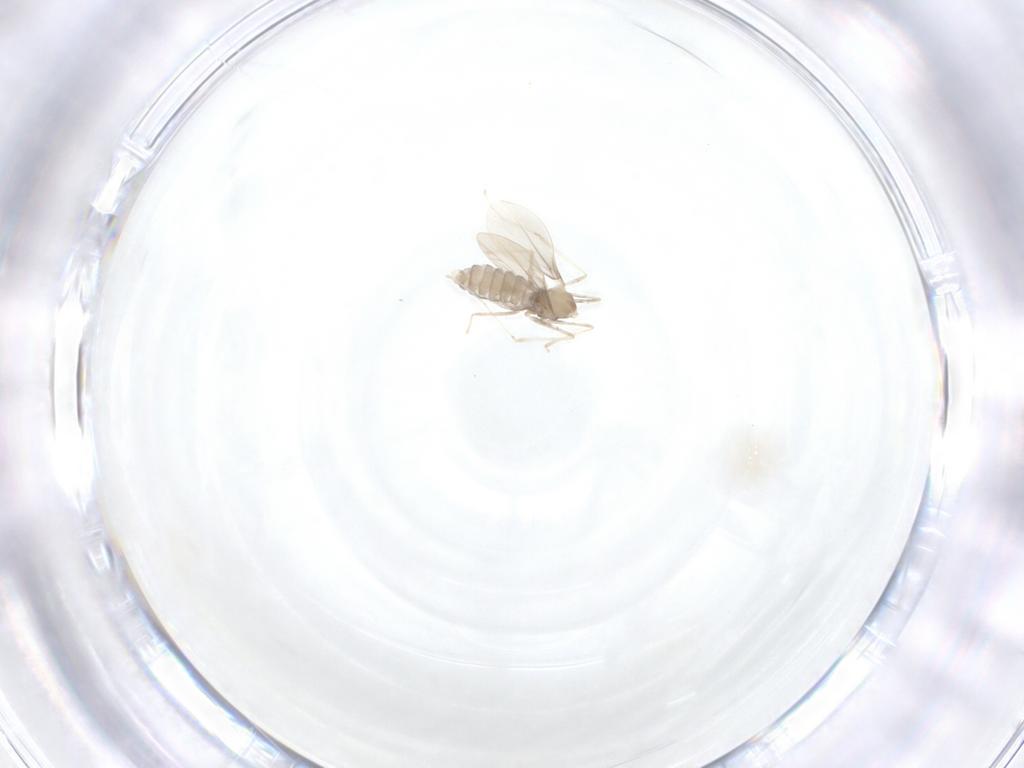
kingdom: Animalia
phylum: Arthropoda
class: Insecta
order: Diptera
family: Cecidomyiidae
